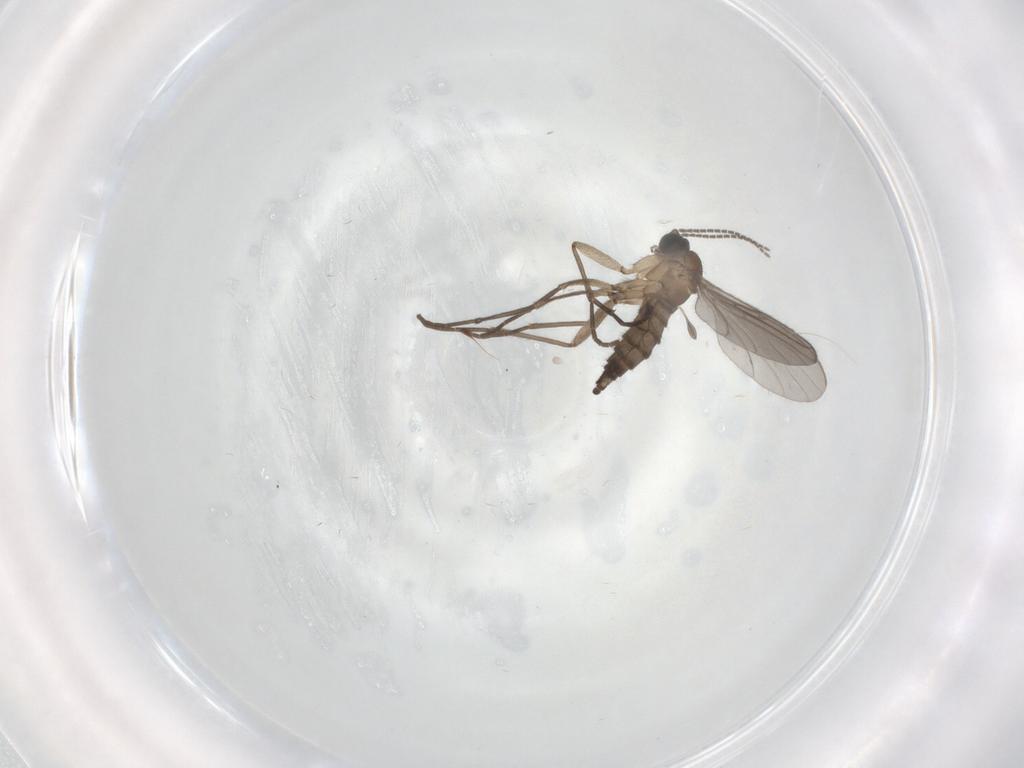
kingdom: Animalia
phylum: Arthropoda
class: Insecta
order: Diptera
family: Sciaridae
